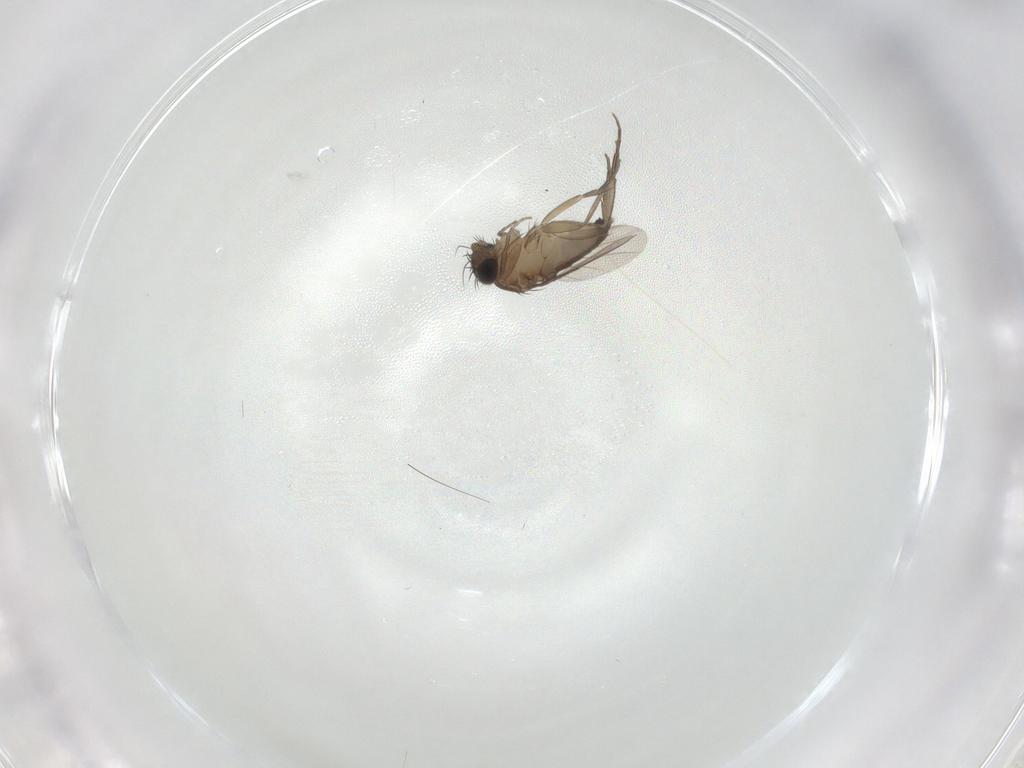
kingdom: Animalia
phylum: Arthropoda
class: Insecta
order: Diptera
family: Phoridae
